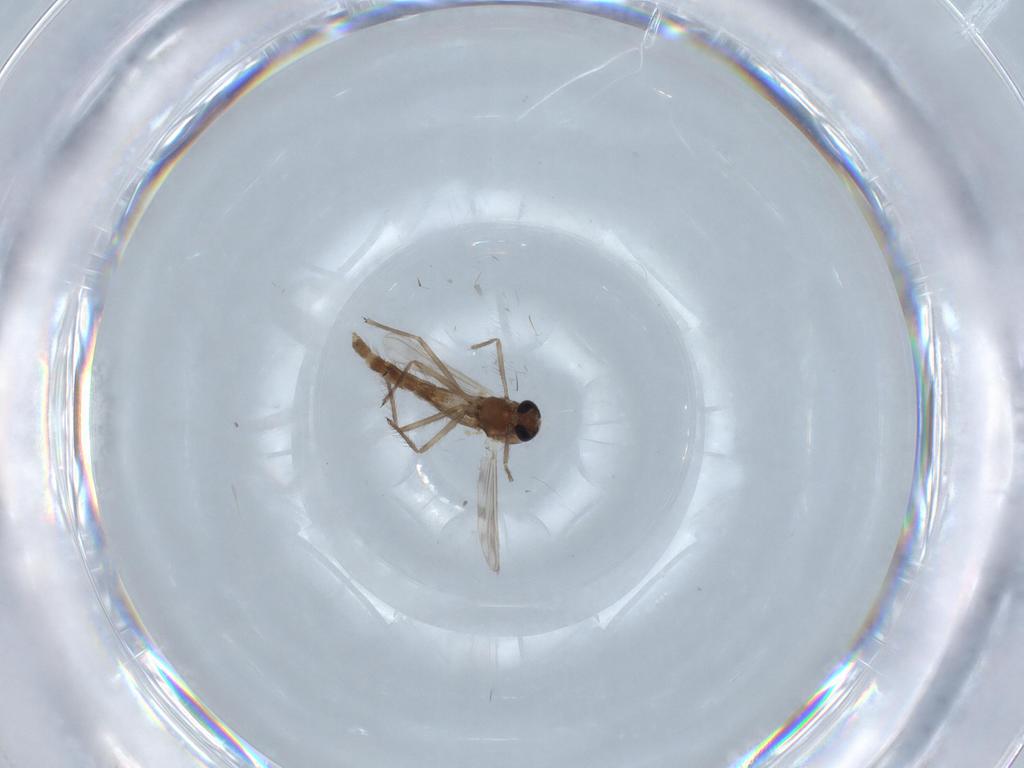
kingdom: Animalia
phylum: Arthropoda
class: Insecta
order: Diptera
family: Chironomidae
